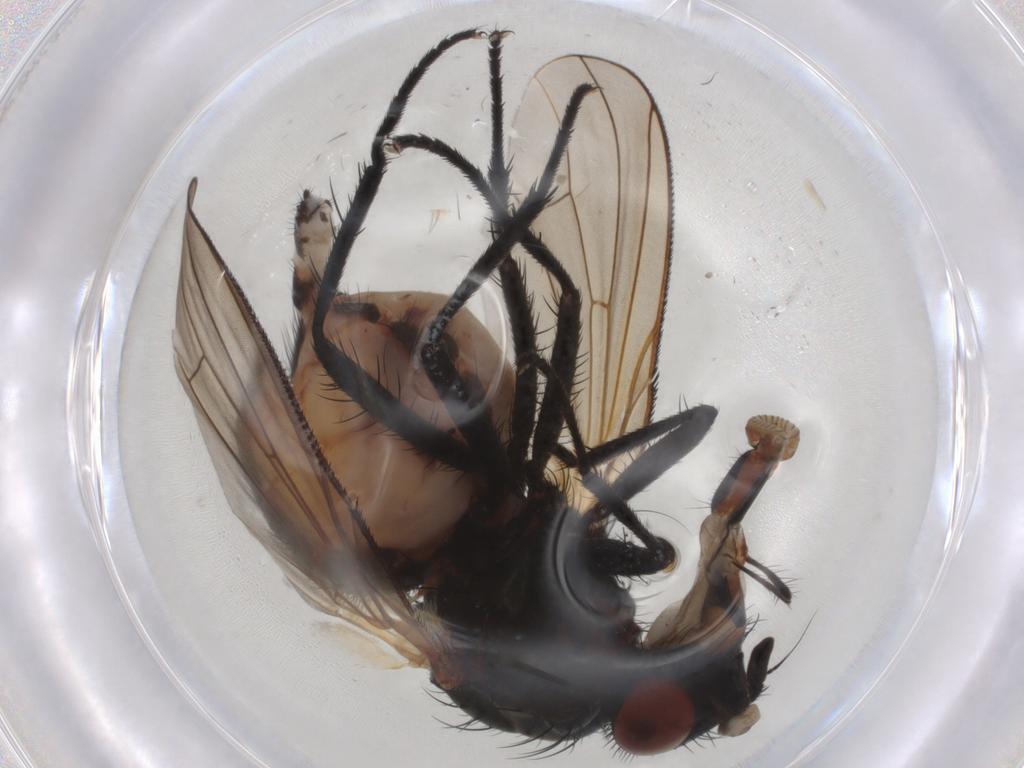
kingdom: Animalia
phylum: Arthropoda
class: Insecta
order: Diptera
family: Anthomyiidae
